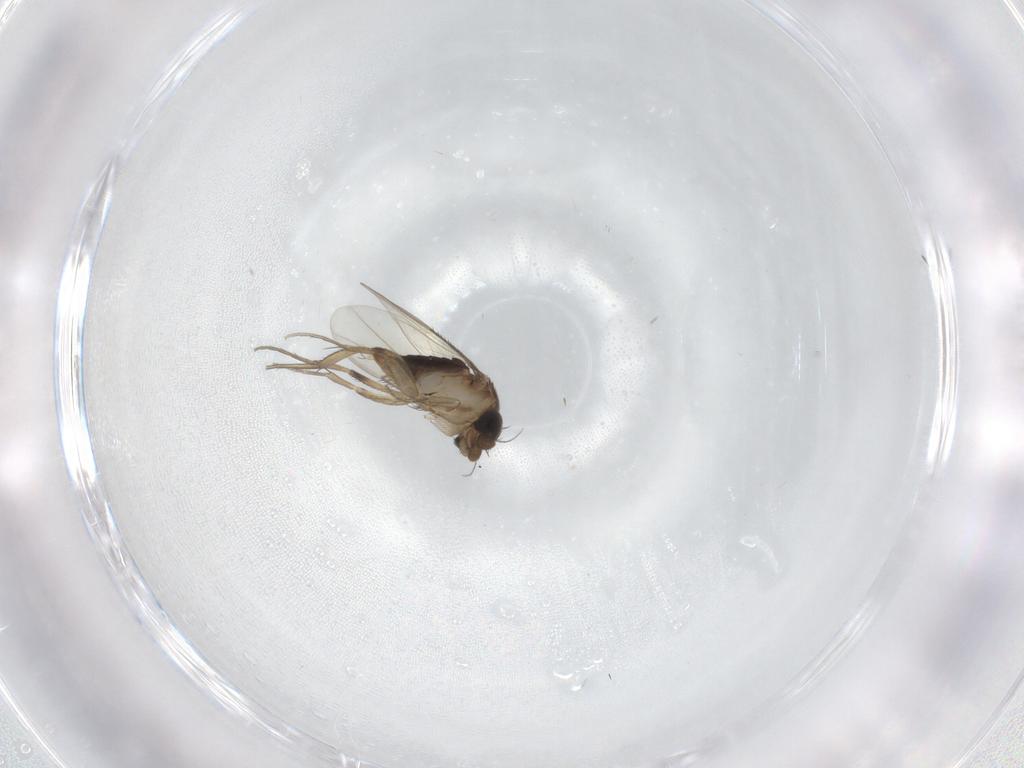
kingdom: Animalia
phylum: Arthropoda
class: Insecta
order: Diptera
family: Phoridae
